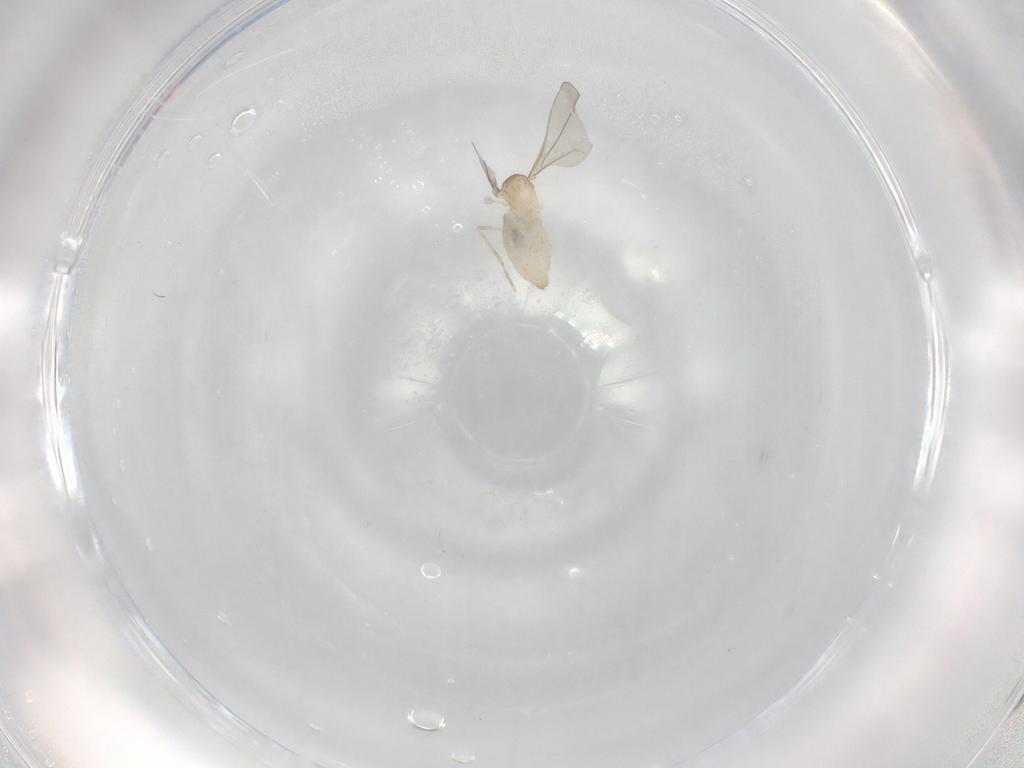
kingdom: Animalia
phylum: Arthropoda
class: Insecta
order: Diptera
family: Cecidomyiidae
